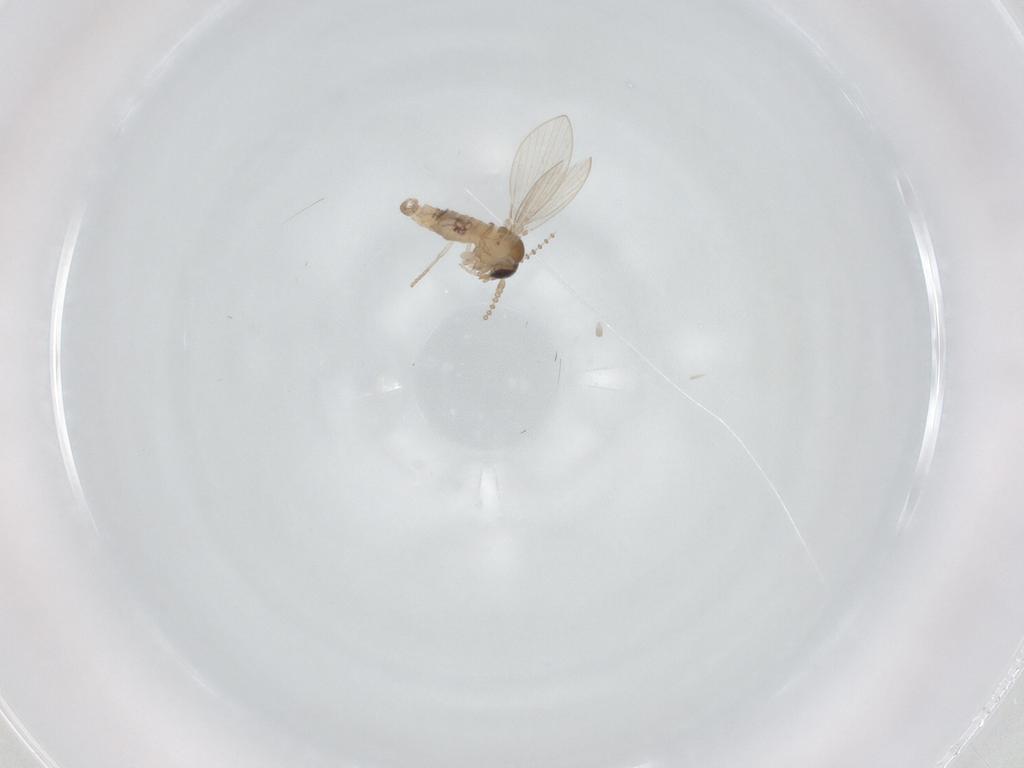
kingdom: Animalia
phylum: Arthropoda
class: Insecta
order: Diptera
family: Psychodidae
